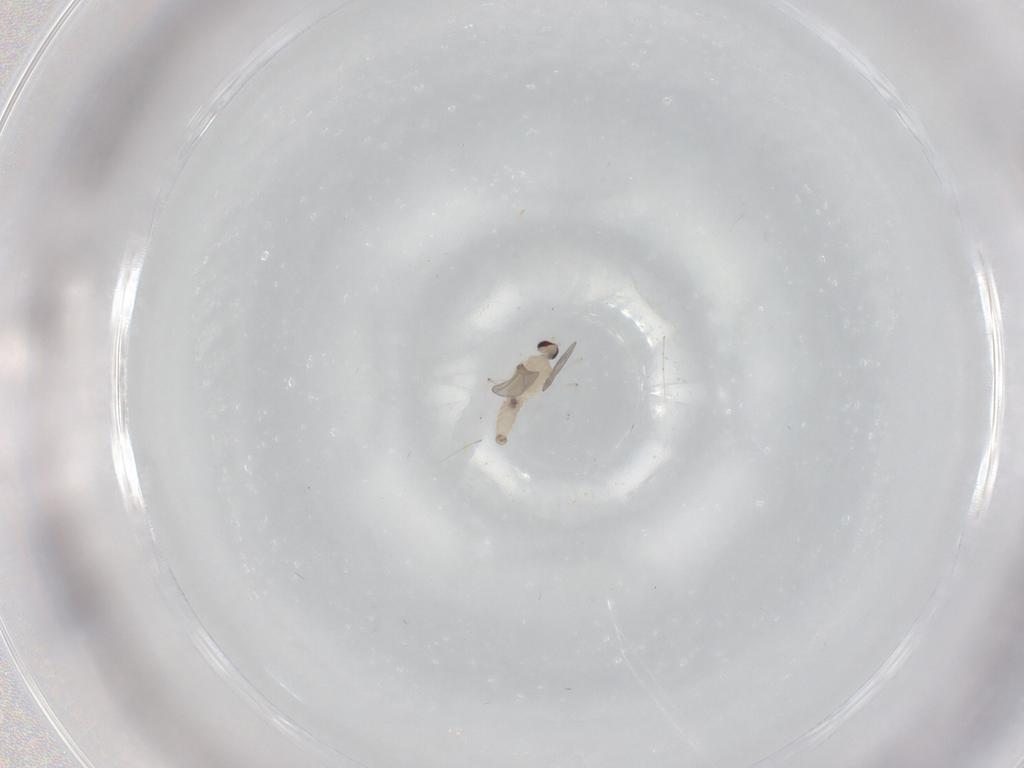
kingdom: Animalia
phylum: Arthropoda
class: Insecta
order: Diptera
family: Cecidomyiidae
